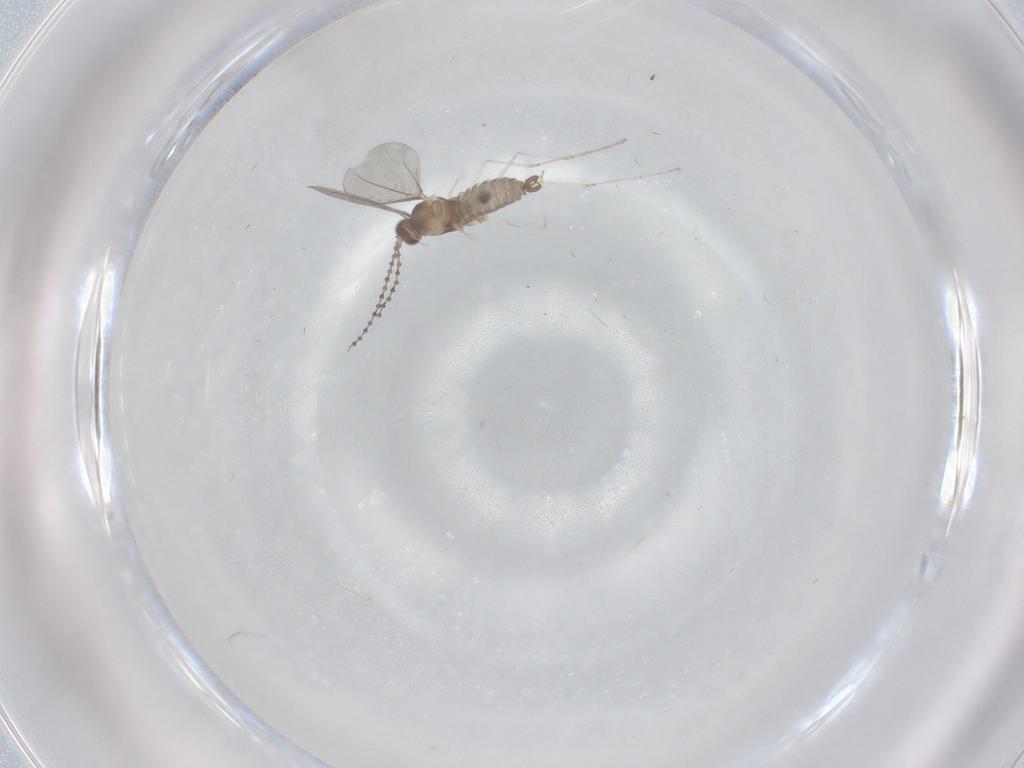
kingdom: Animalia
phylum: Arthropoda
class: Insecta
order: Diptera
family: Cecidomyiidae
